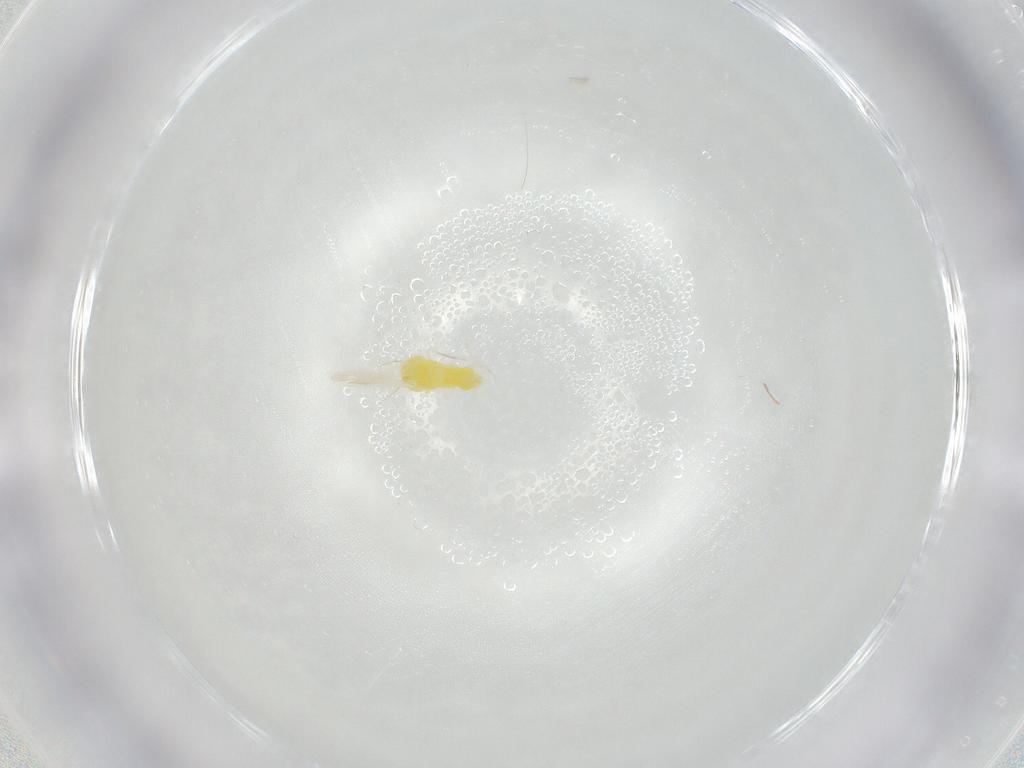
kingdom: Animalia
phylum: Arthropoda
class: Insecta
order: Hemiptera
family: Aleyrodidae
